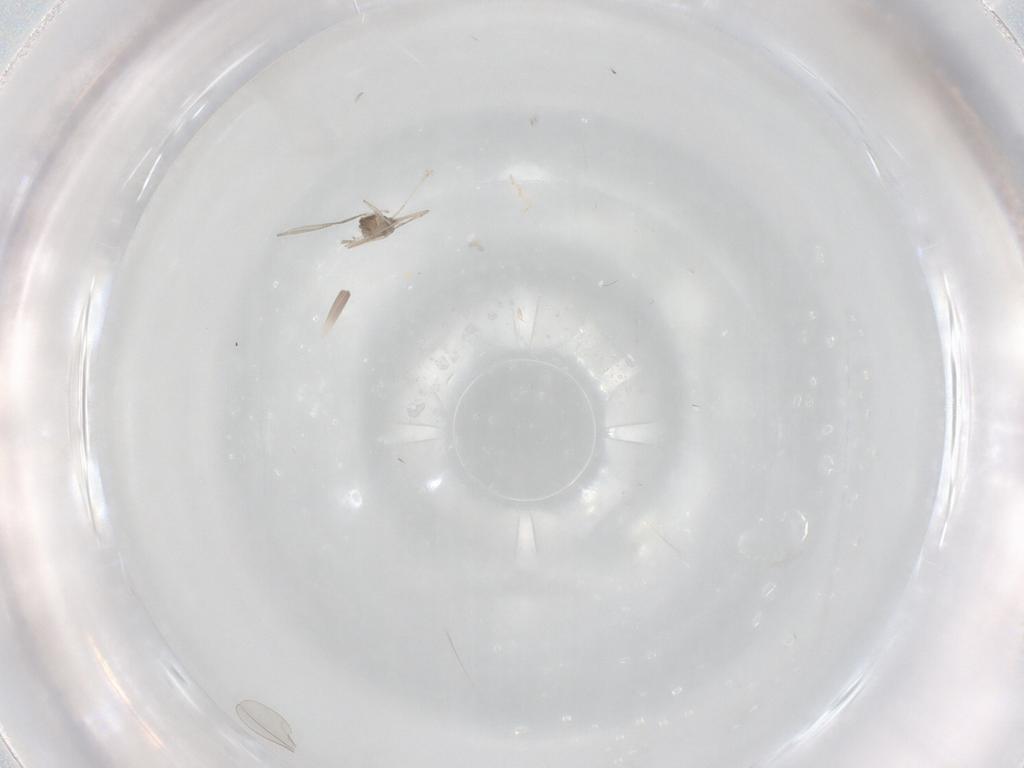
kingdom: Animalia
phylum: Arthropoda
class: Insecta
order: Diptera
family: Cecidomyiidae
